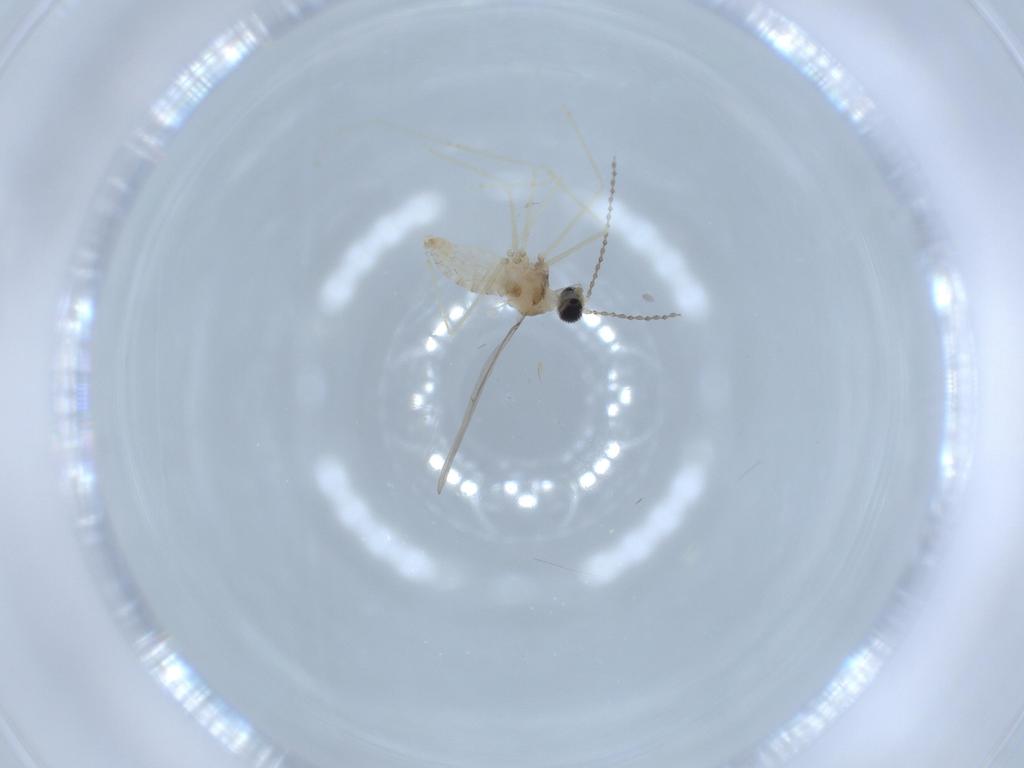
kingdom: Animalia
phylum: Arthropoda
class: Insecta
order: Diptera
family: Cecidomyiidae
